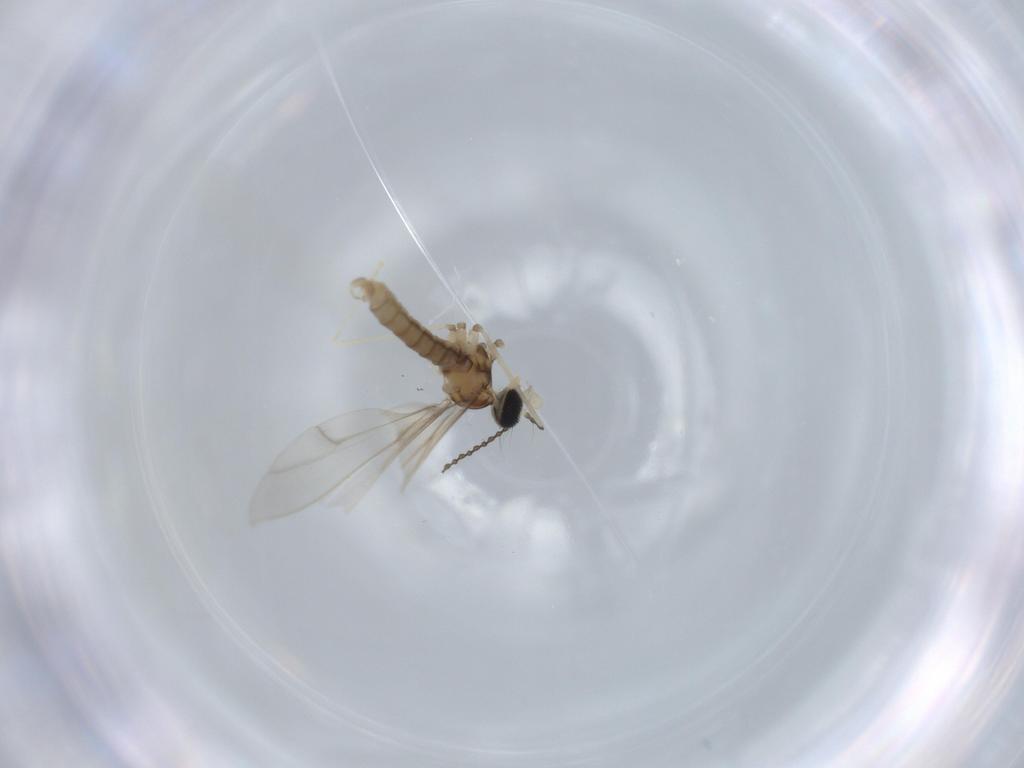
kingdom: Animalia
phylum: Arthropoda
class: Insecta
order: Diptera
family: Cecidomyiidae
